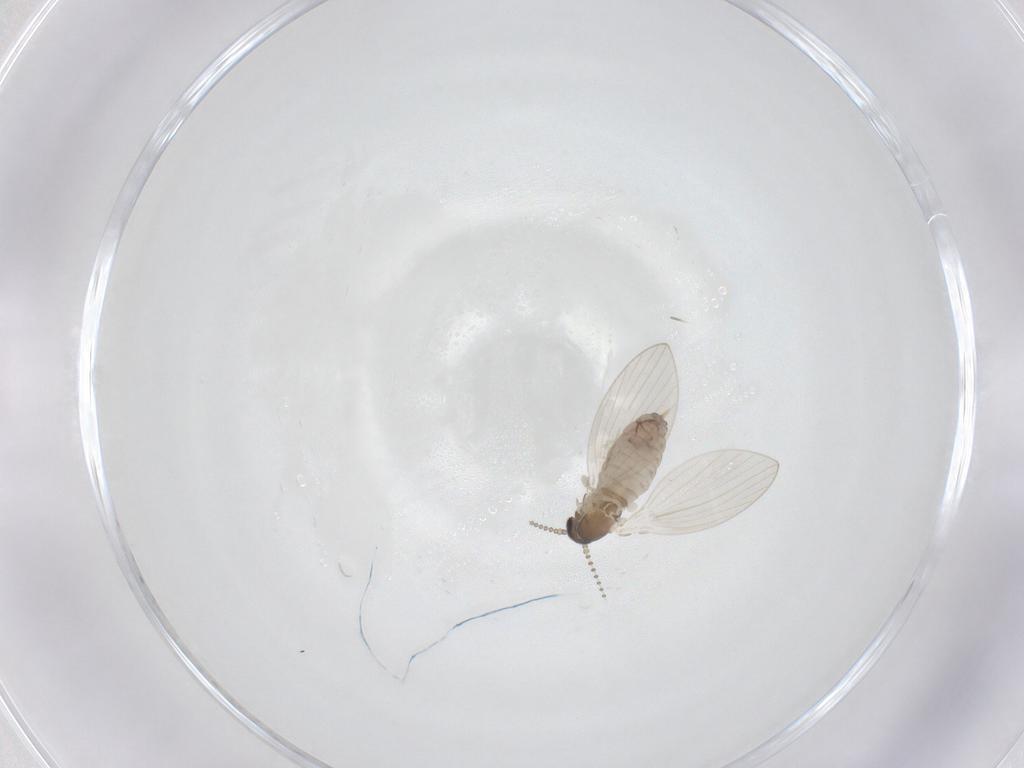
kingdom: Animalia
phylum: Arthropoda
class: Insecta
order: Diptera
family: Psychodidae
